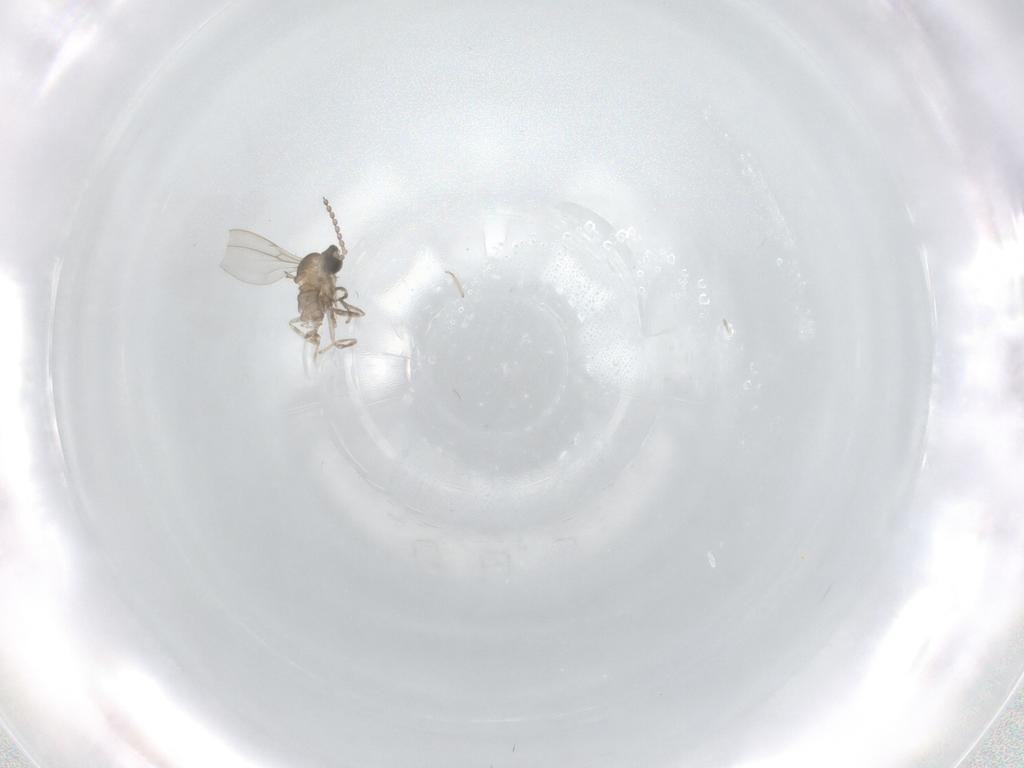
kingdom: Animalia
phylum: Arthropoda
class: Insecta
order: Diptera
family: Cecidomyiidae
